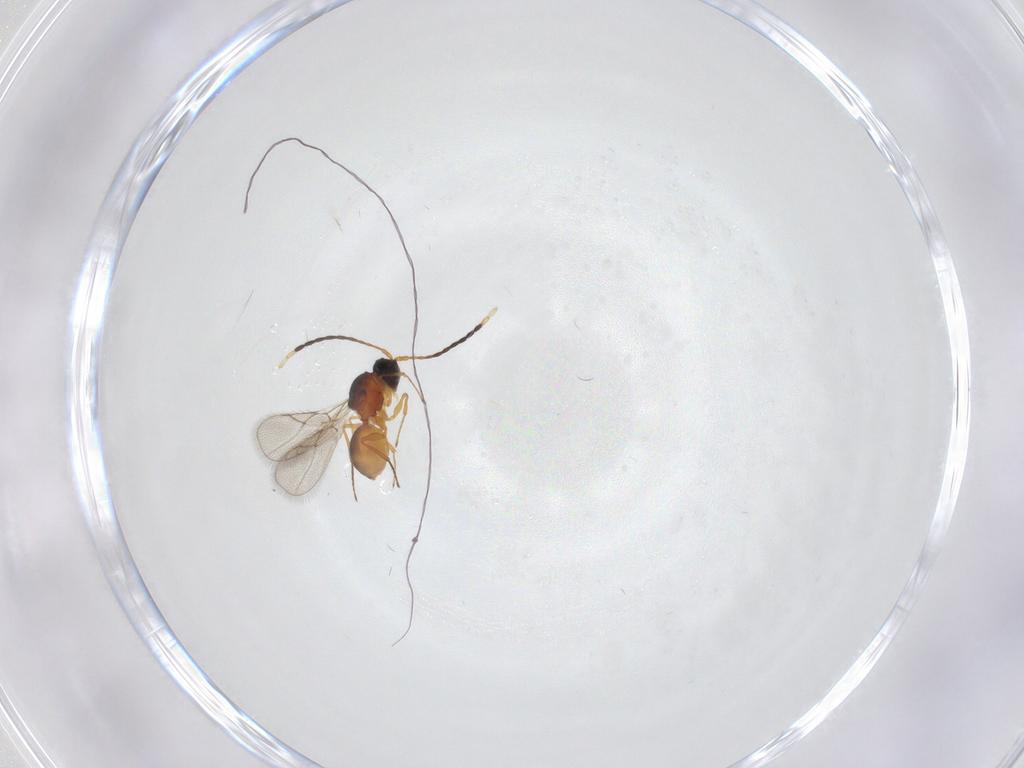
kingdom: Animalia
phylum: Arthropoda
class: Insecta
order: Hymenoptera
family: Figitidae
